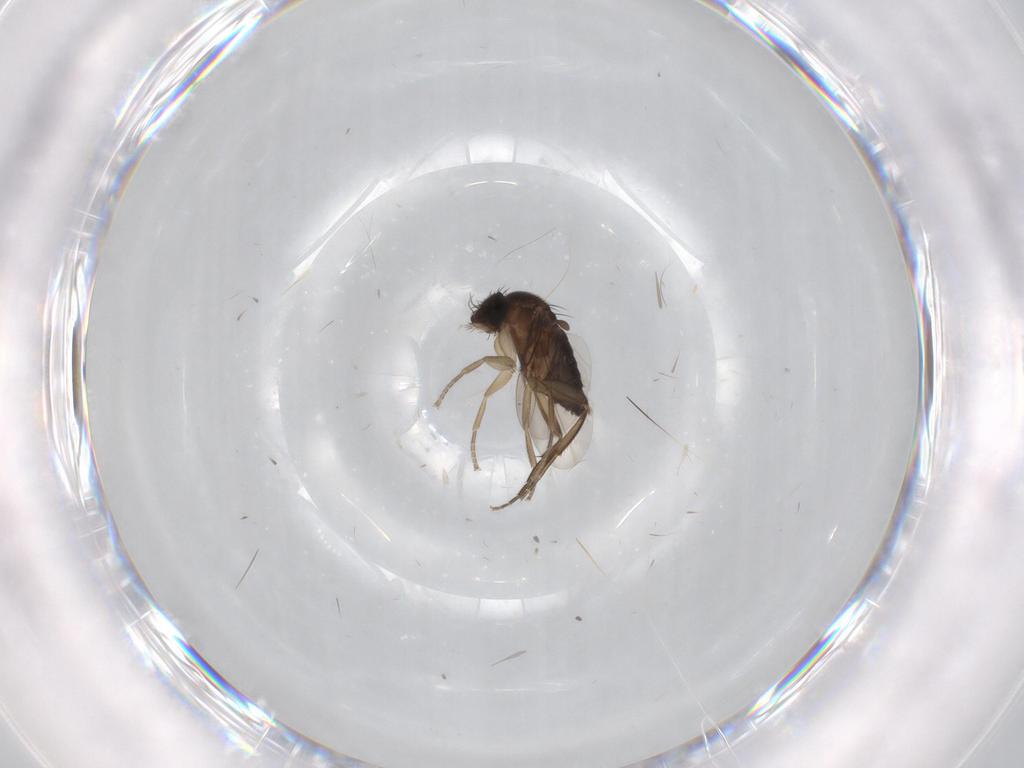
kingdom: Animalia
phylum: Arthropoda
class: Insecta
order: Diptera
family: Phoridae
